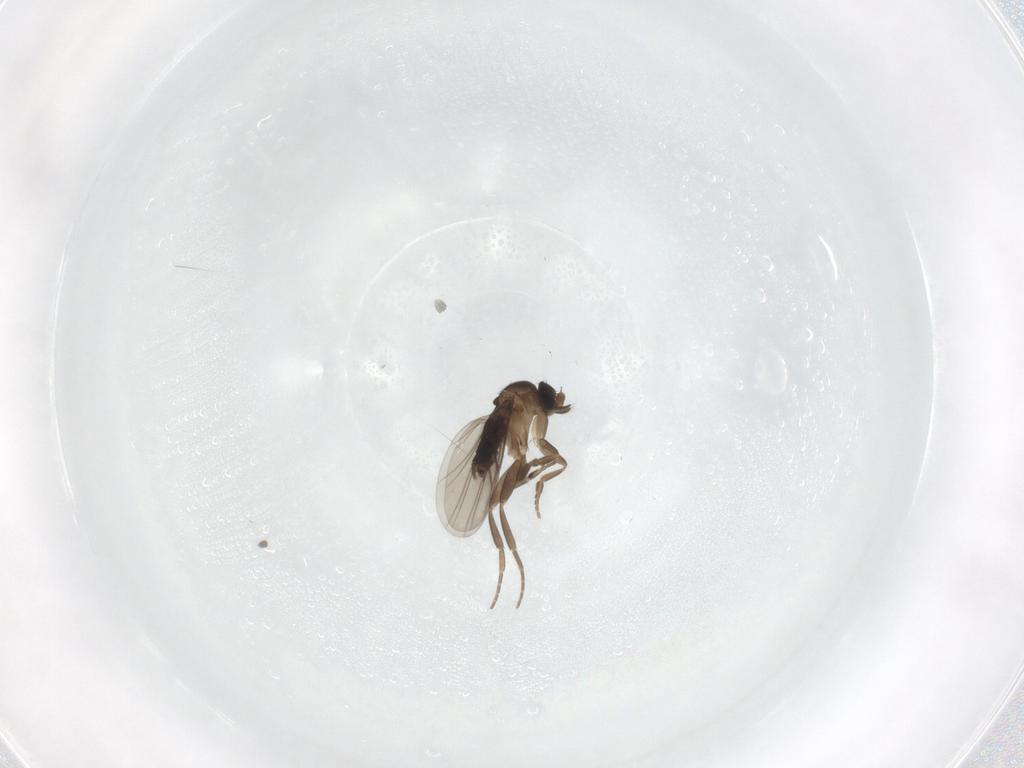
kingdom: Animalia
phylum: Arthropoda
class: Insecta
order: Diptera
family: Phoridae
